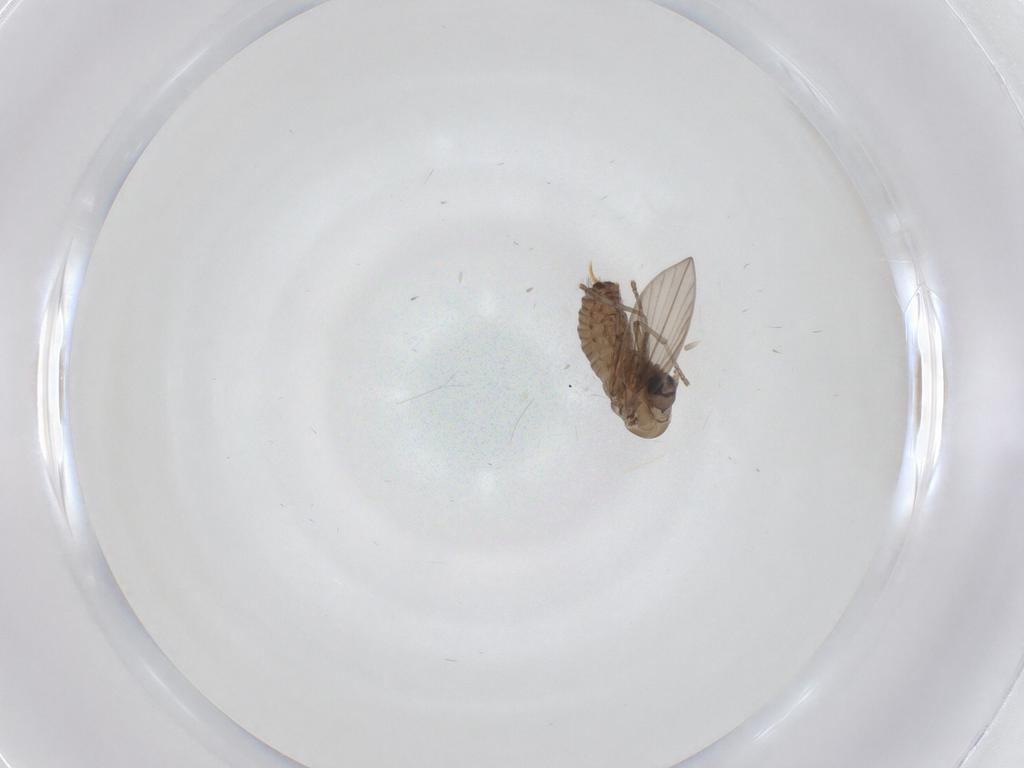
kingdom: Animalia
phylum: Arthropoda
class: Insecta
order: Diptera
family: Psychodidae
